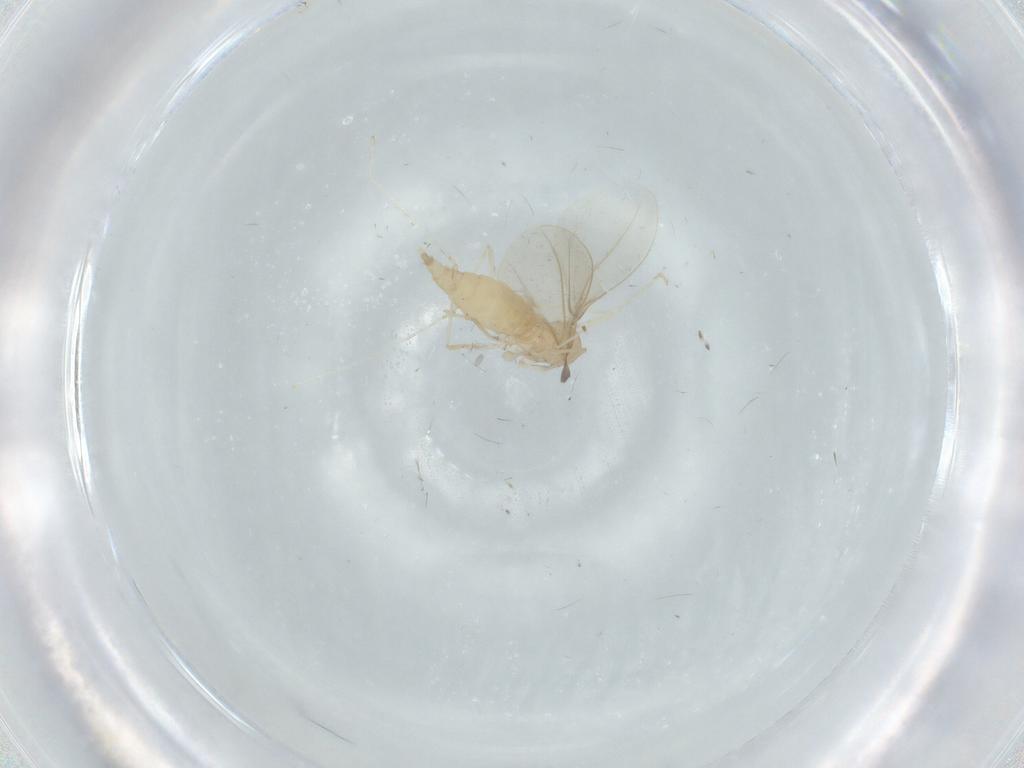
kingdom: Animalia
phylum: Arthropoda
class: Insecta
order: Diptera
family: Cecidomyiidae
